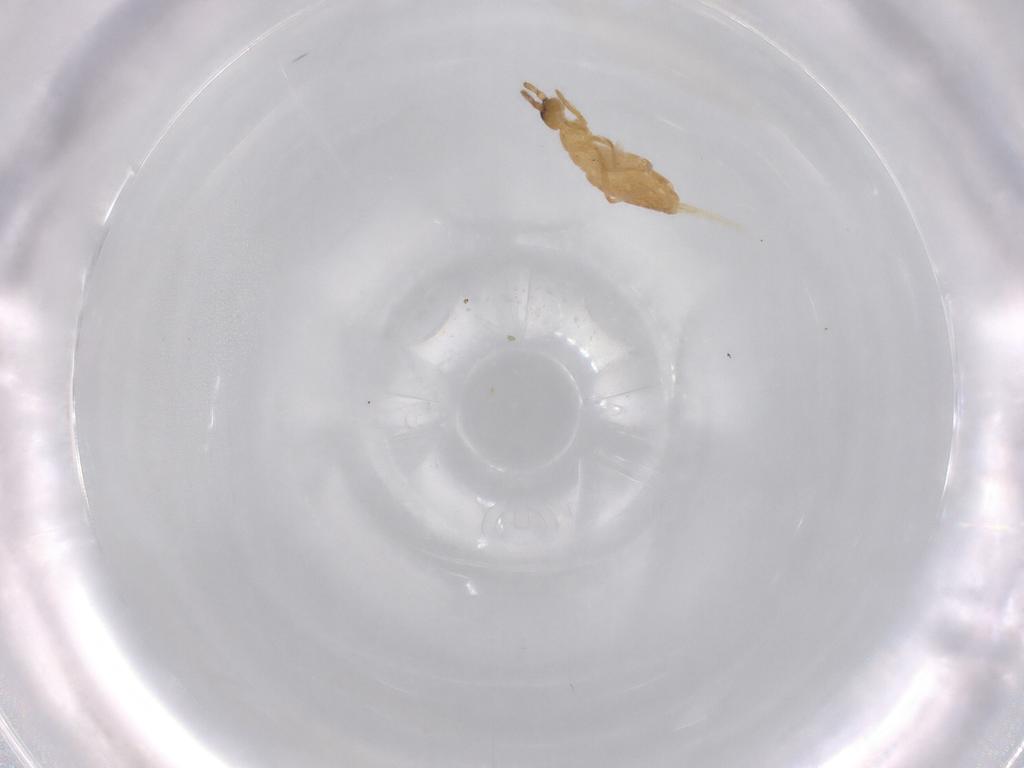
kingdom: Animalia
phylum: Arthropoda
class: Collembola
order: Entomobryomorpha
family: Entomobryidae
